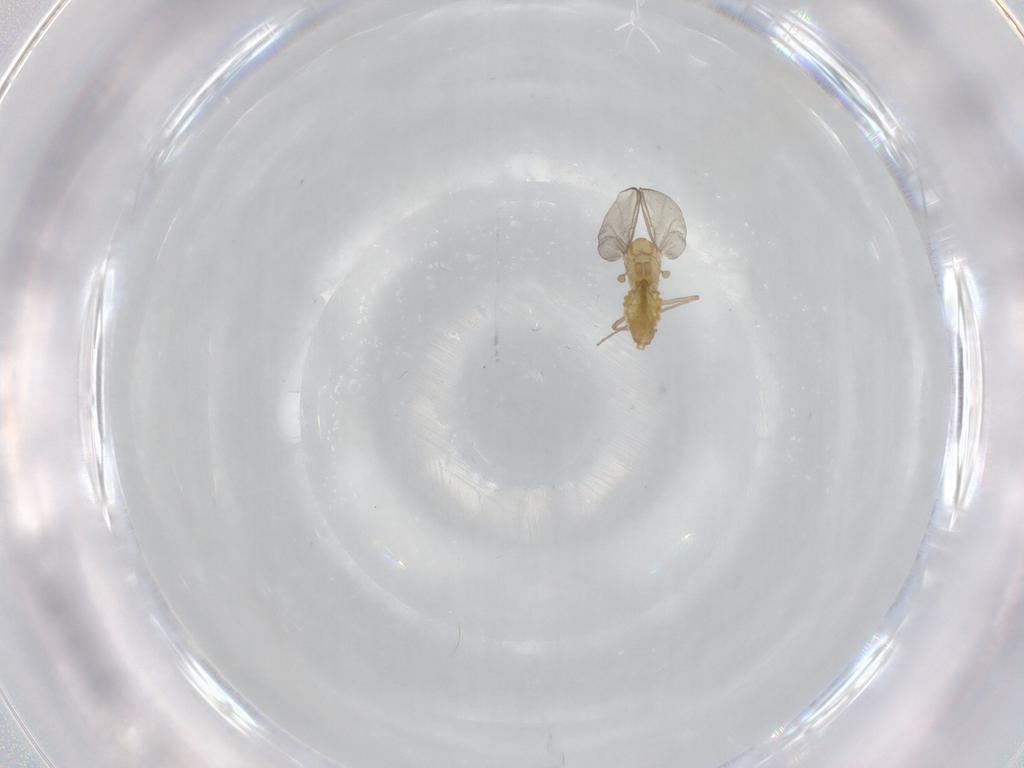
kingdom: Animalia
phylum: Arthropoda
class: Insecta
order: Diptera
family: Chironomidae
